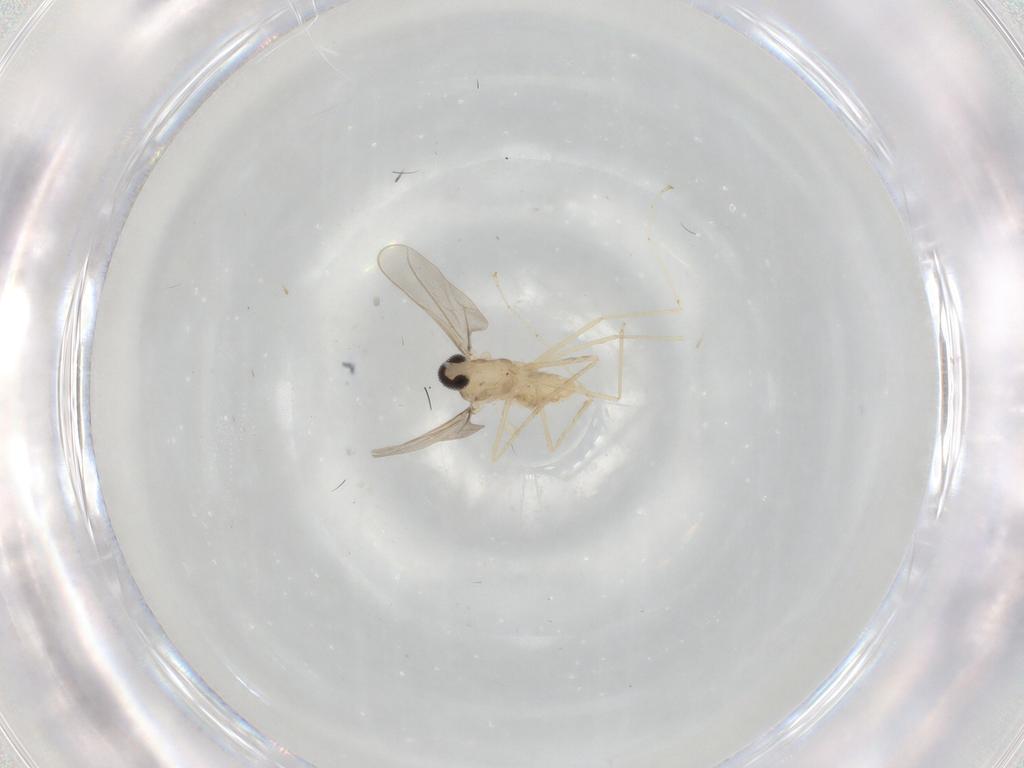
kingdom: Animalia
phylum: Arthropoda
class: Insecta
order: Diptera
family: Cecidomyiidae
